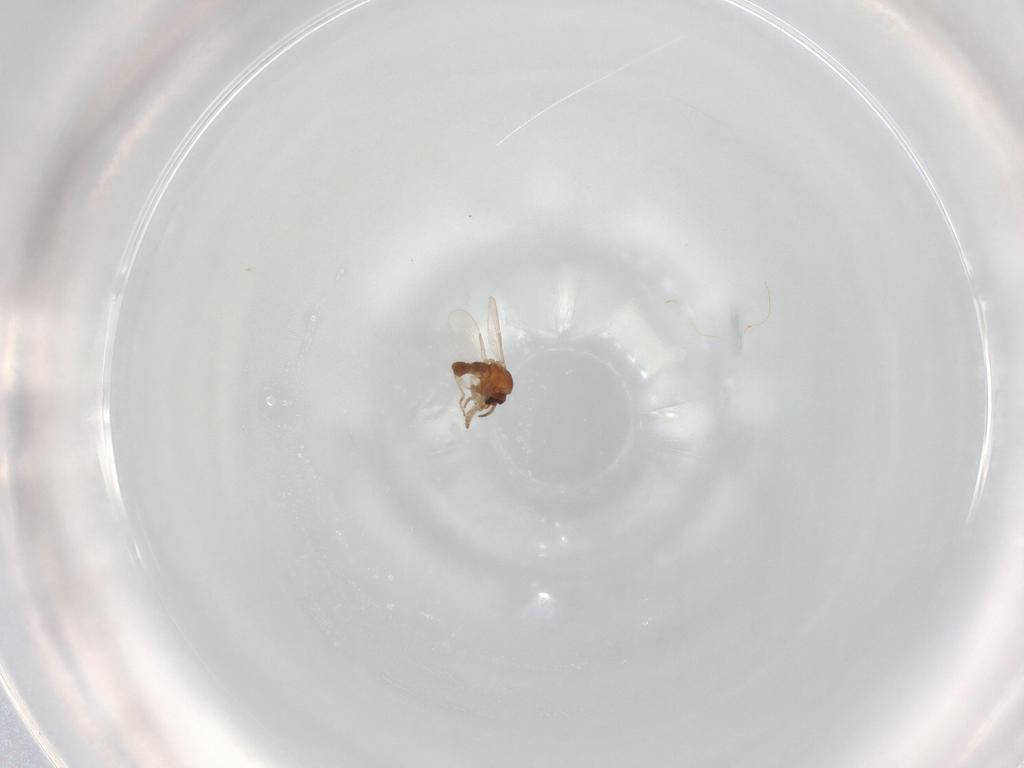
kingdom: Animalia
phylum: Arthropoda
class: Insecta
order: Diptera
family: Ceratopogonidae
